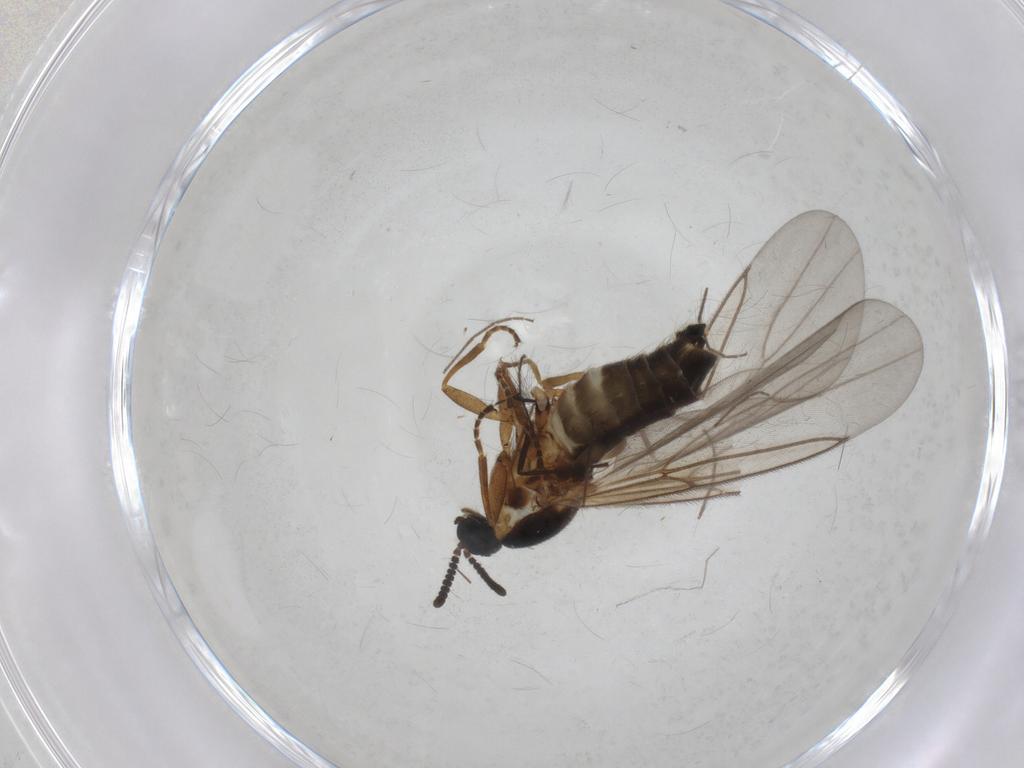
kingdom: Animalia
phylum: Arthropoda
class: Insecta
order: Diptera
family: Scatopsidae
